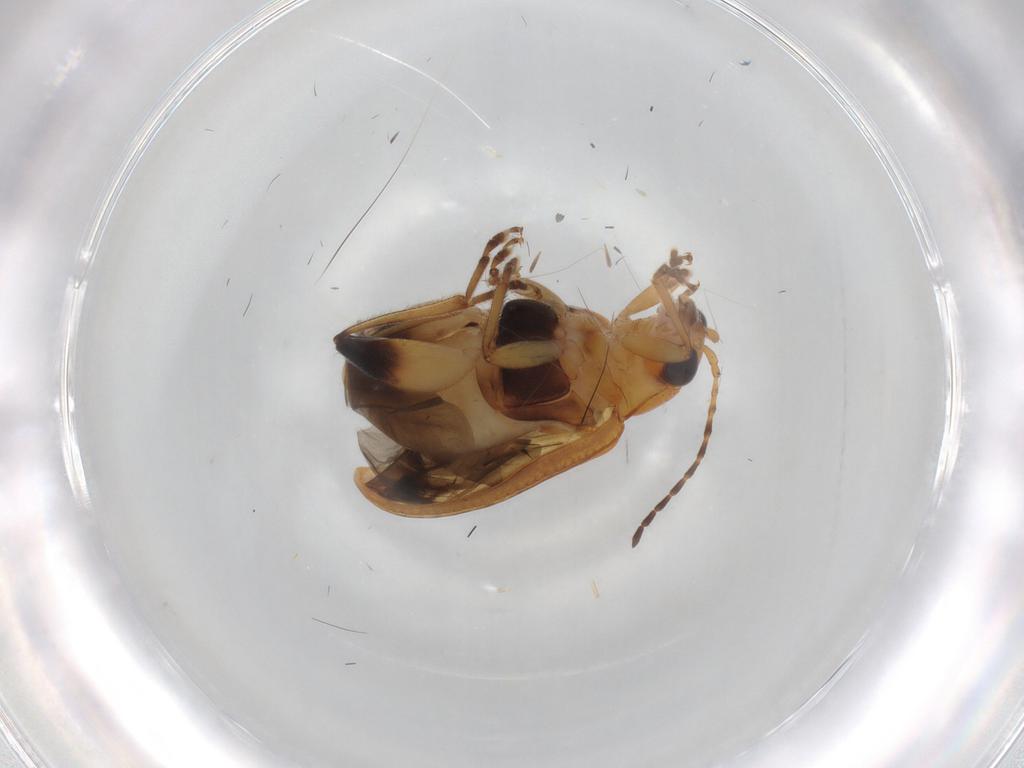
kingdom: Animalia
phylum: Arthropoda
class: Insecta
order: Coleoptera
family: Chrysomelidae
